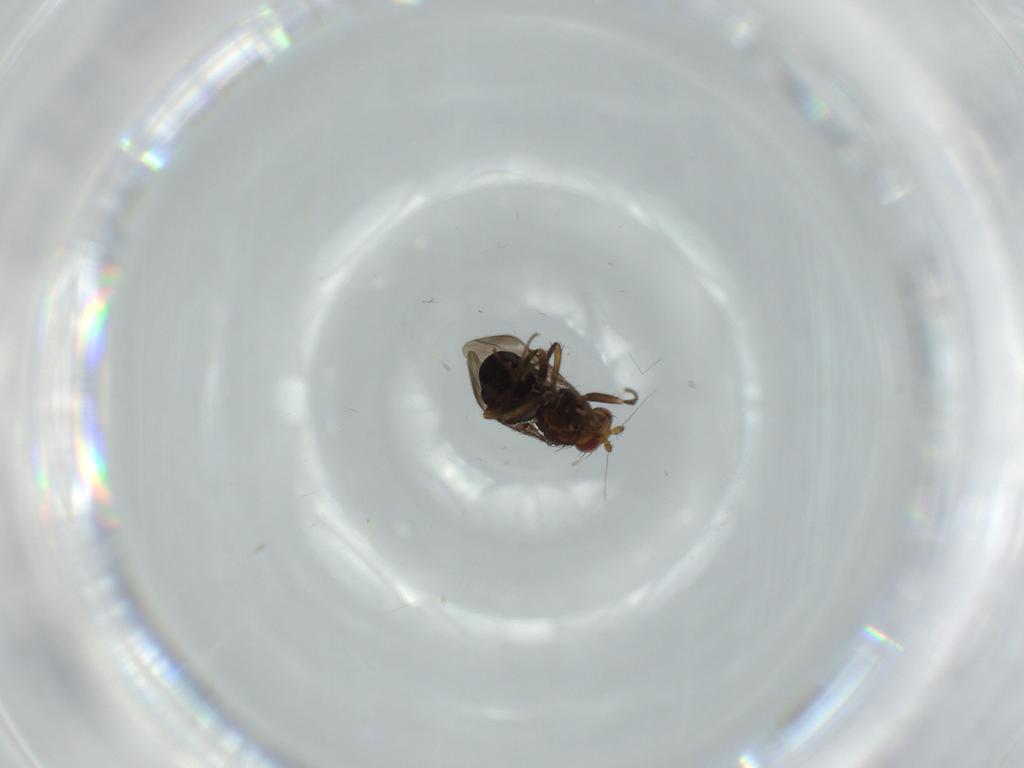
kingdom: Animalia
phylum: Arthropoda
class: Insecta
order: Diptera
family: Sphaeroceridae
